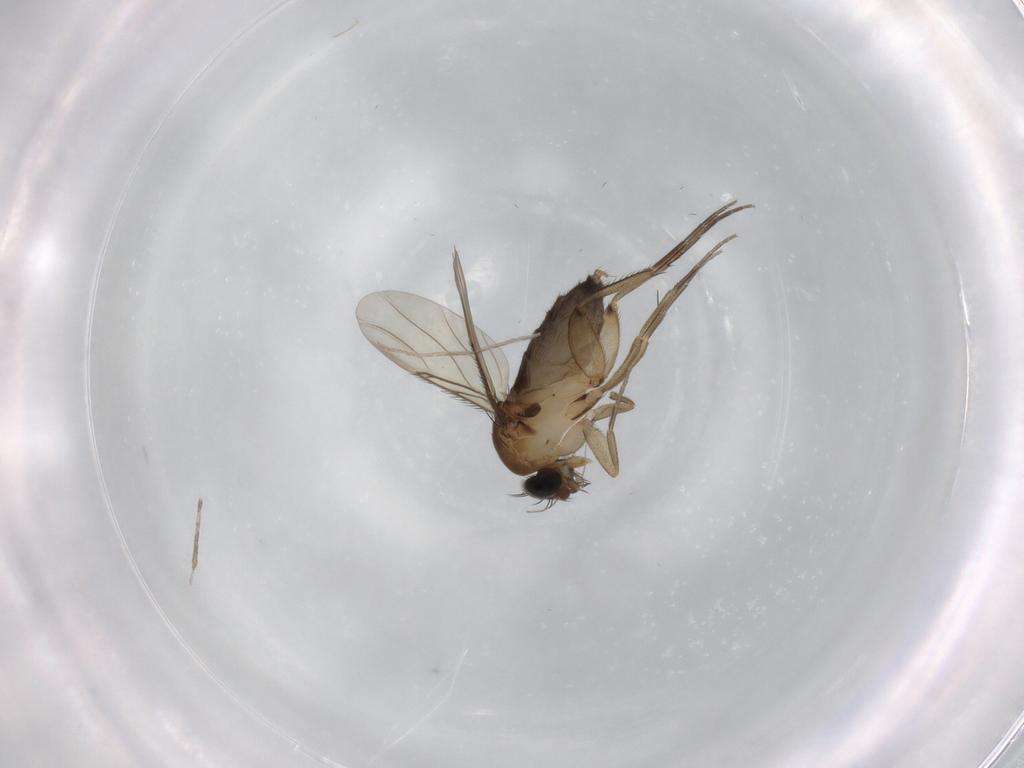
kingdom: Animalia
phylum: Arthropoda
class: Insecta
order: Diptera
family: Phoridae
